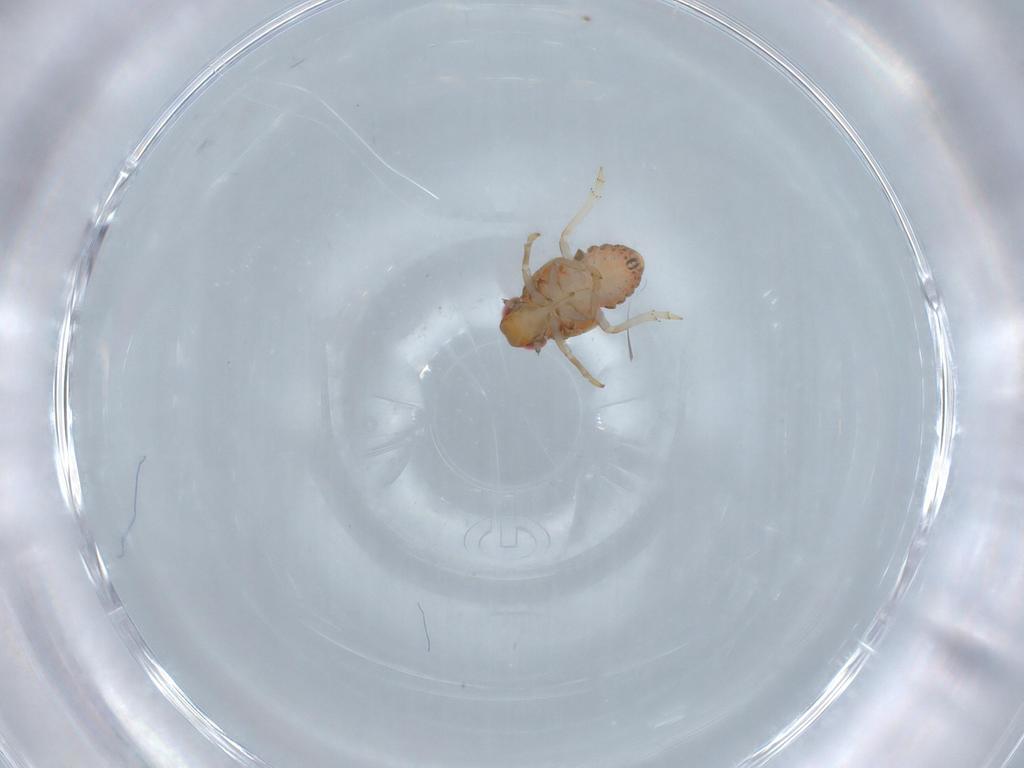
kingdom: Animalia
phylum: Arthropoda
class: Insecta
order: Hemiptera
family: Issidae
